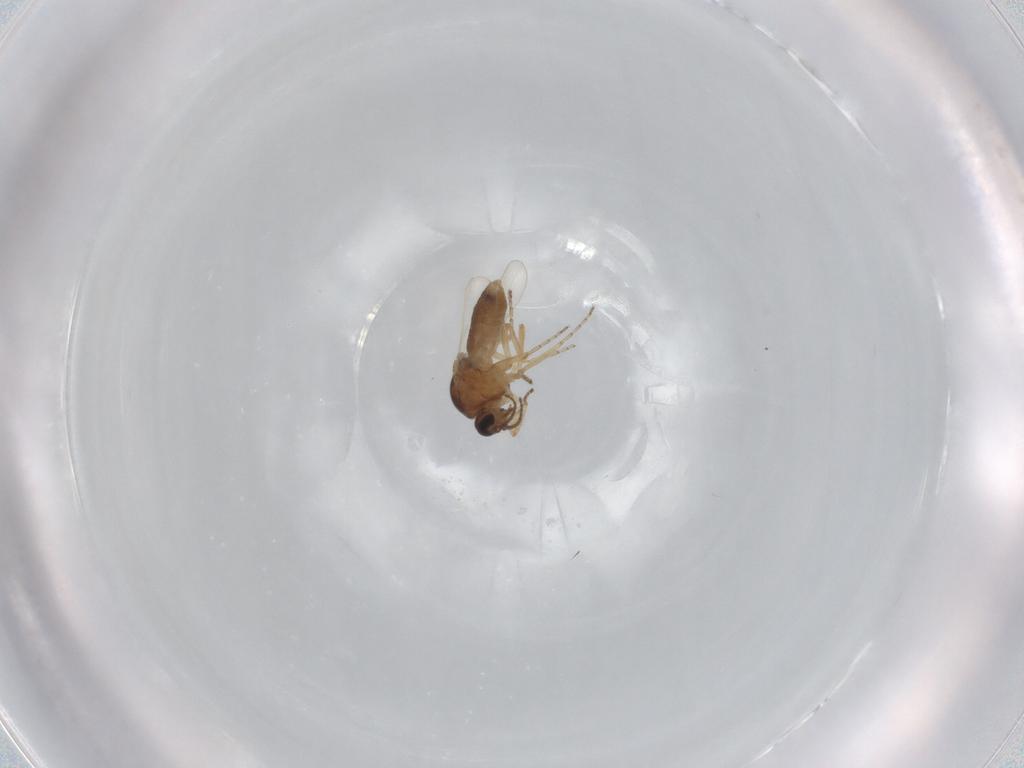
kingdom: Animalia
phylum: Arthropoda
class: Insecta
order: Diptera
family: Ceratopogonidae
